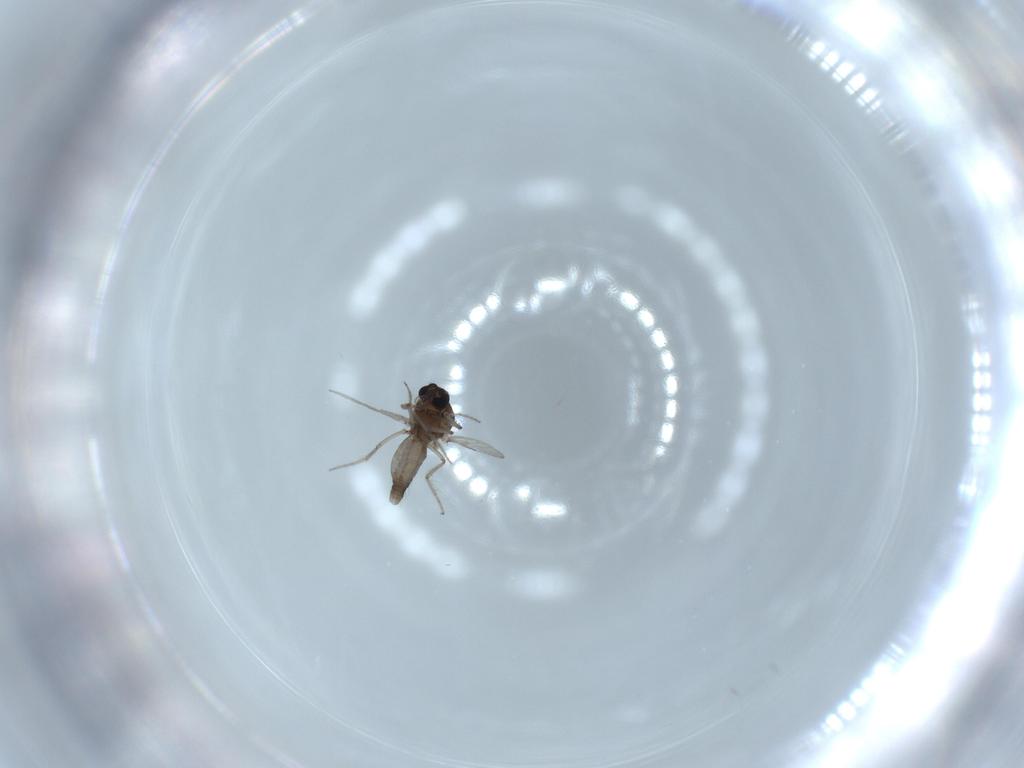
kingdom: Animalia
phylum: Arthropoda
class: Insecta
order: Diptera
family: Ceratopogonidae
